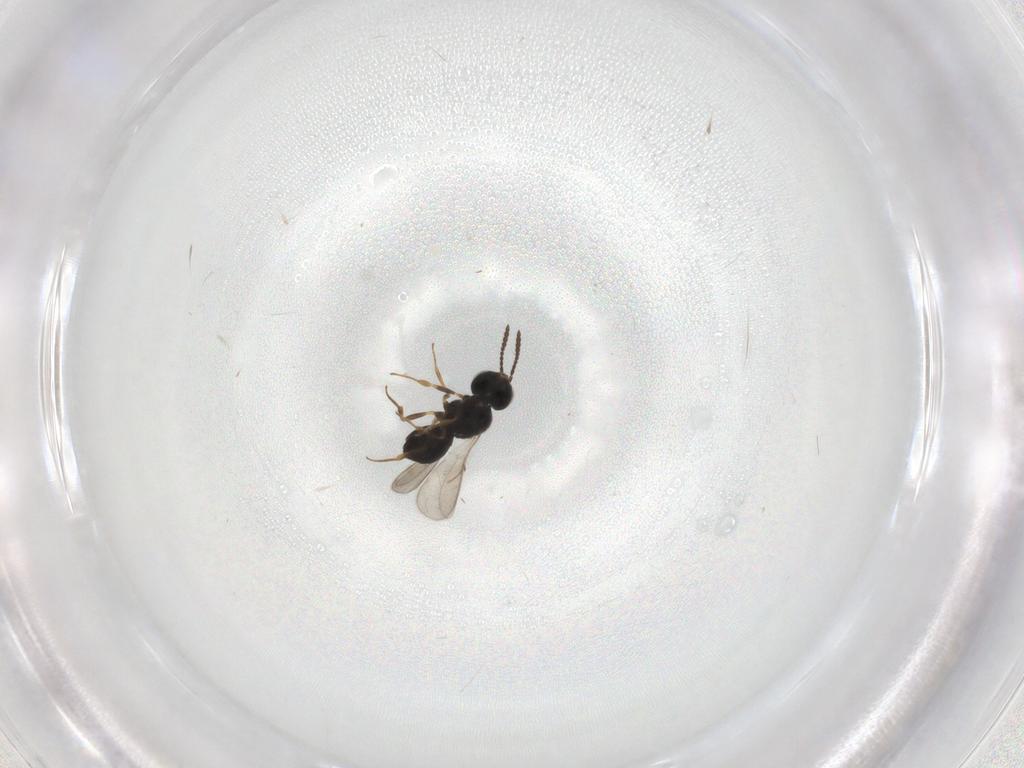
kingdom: Animalia
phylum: Arthropoda
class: Insecta
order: Hymenoptera
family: Scelionidae
